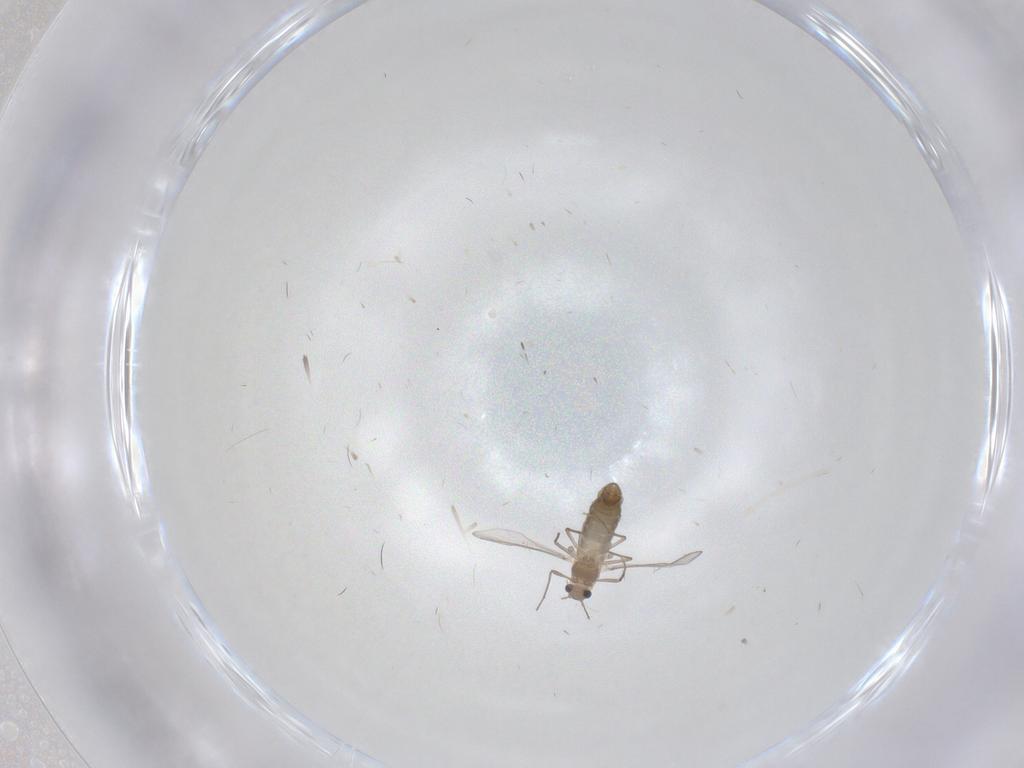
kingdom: Animalia
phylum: Arthropoda
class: Insecta
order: Diptera
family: Chironomidae
